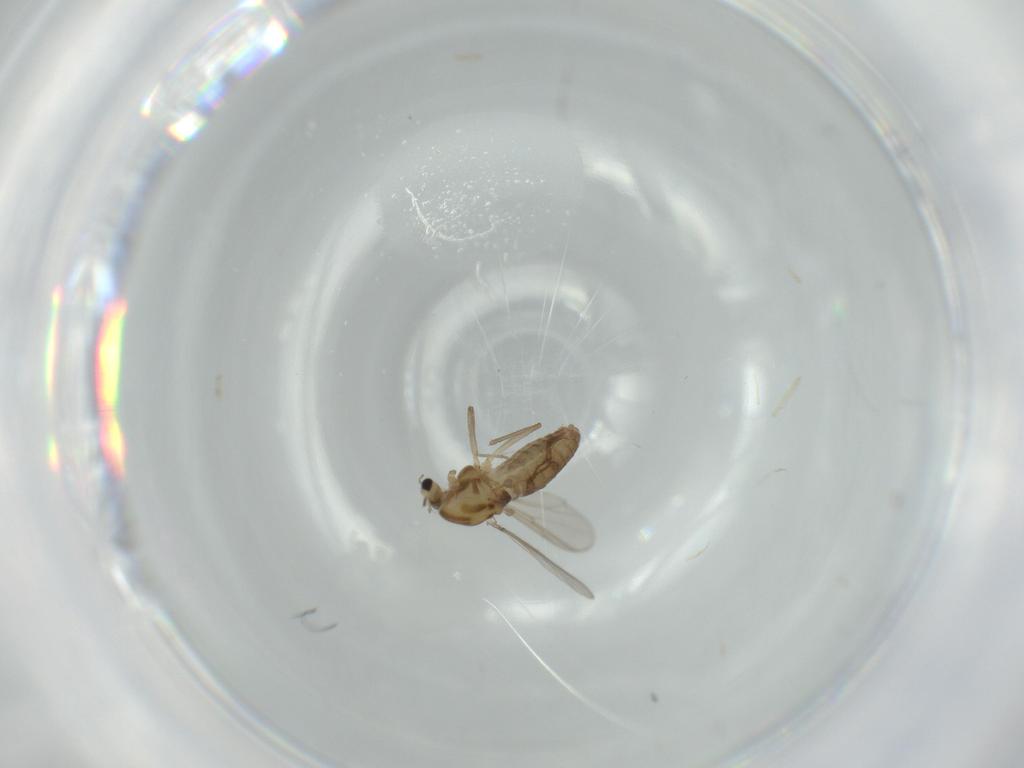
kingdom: Animalia
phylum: Arthropoda
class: Insecta
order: Diptera
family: Chironomidae
